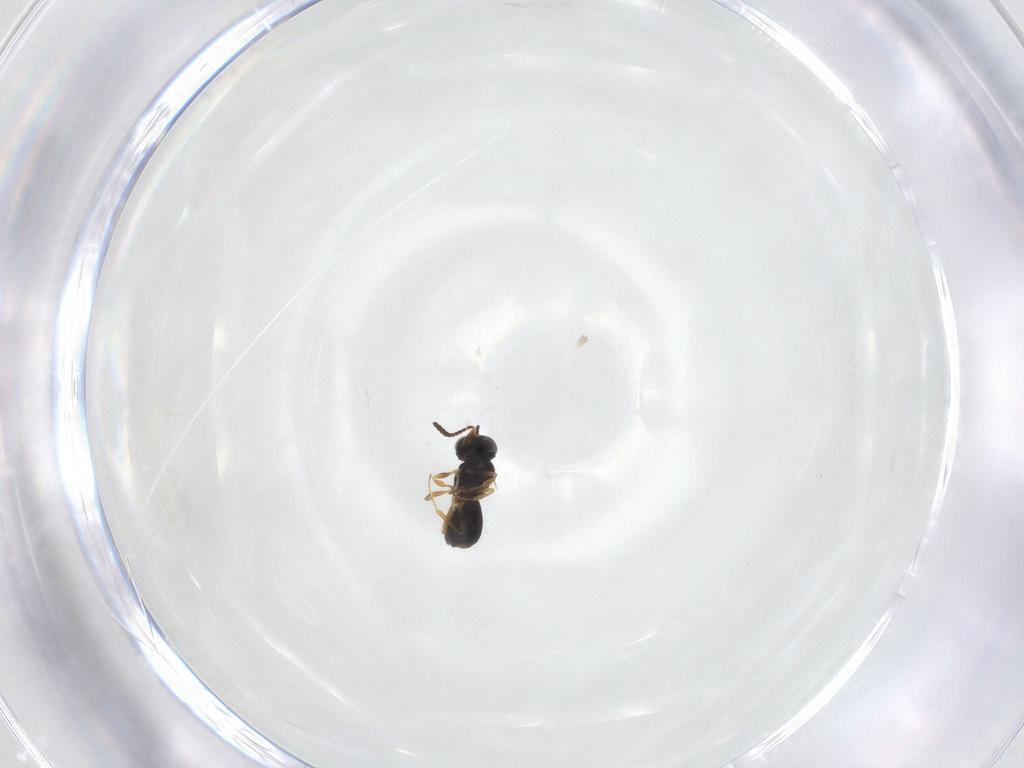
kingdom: Animalia
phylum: Arthropoda
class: Insecta
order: Hymenoptera
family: Scelionidae
